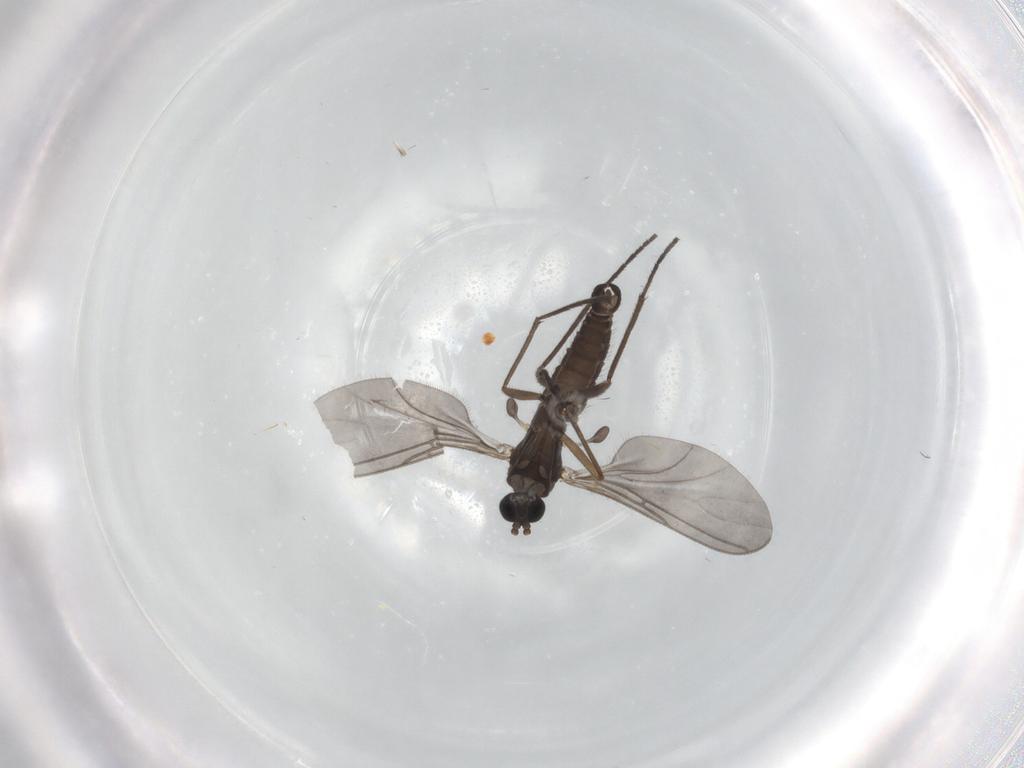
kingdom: Animalia
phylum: Arthropoda
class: Insecta
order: Diptera
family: Sciaridae
